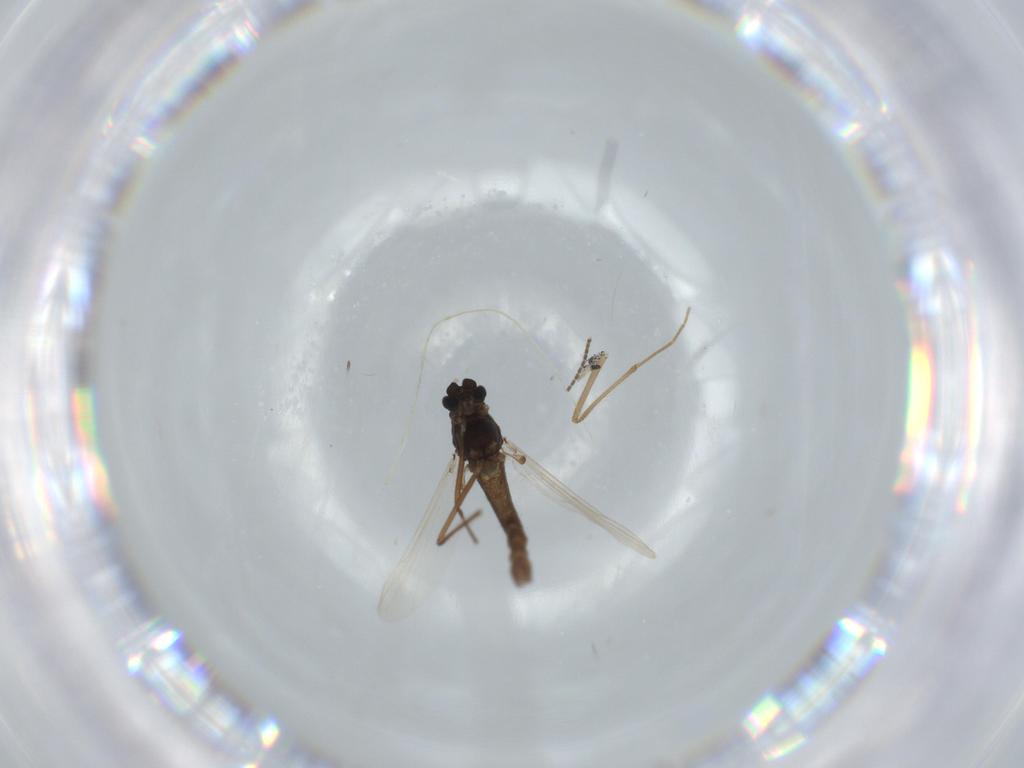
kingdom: Animalia
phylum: Arthropoda
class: Insecta
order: Diptera
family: Chironomidae
